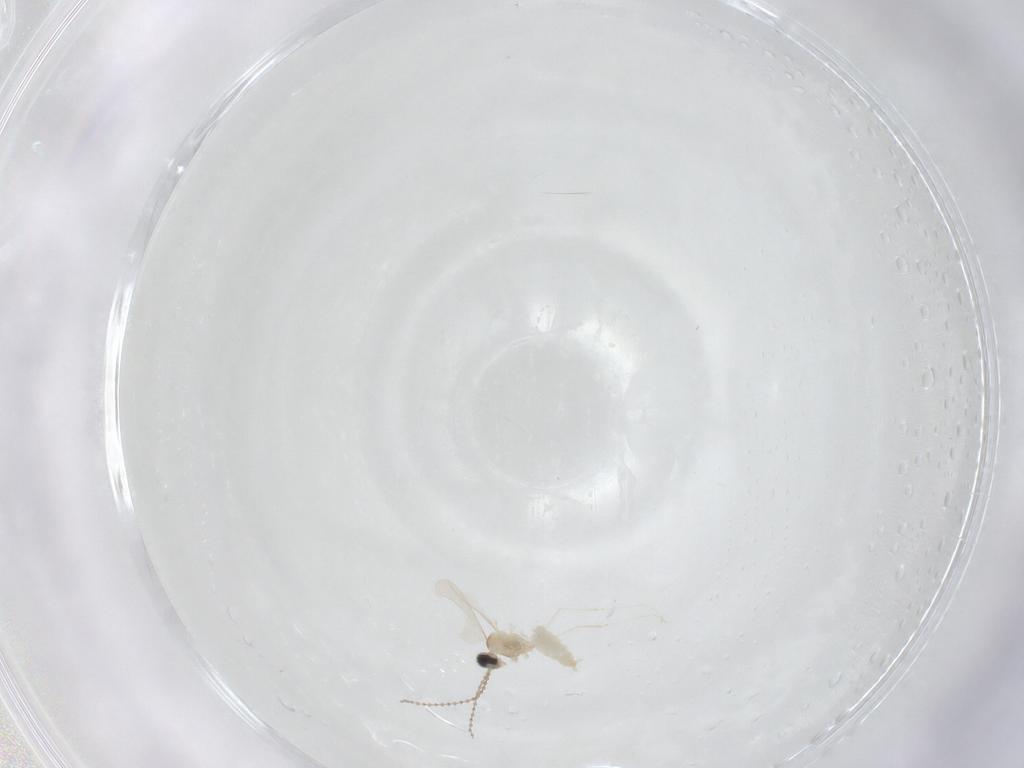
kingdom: Animalia
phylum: Arthropoda
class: Insecta
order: Diptera
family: Cecidomyiidae
